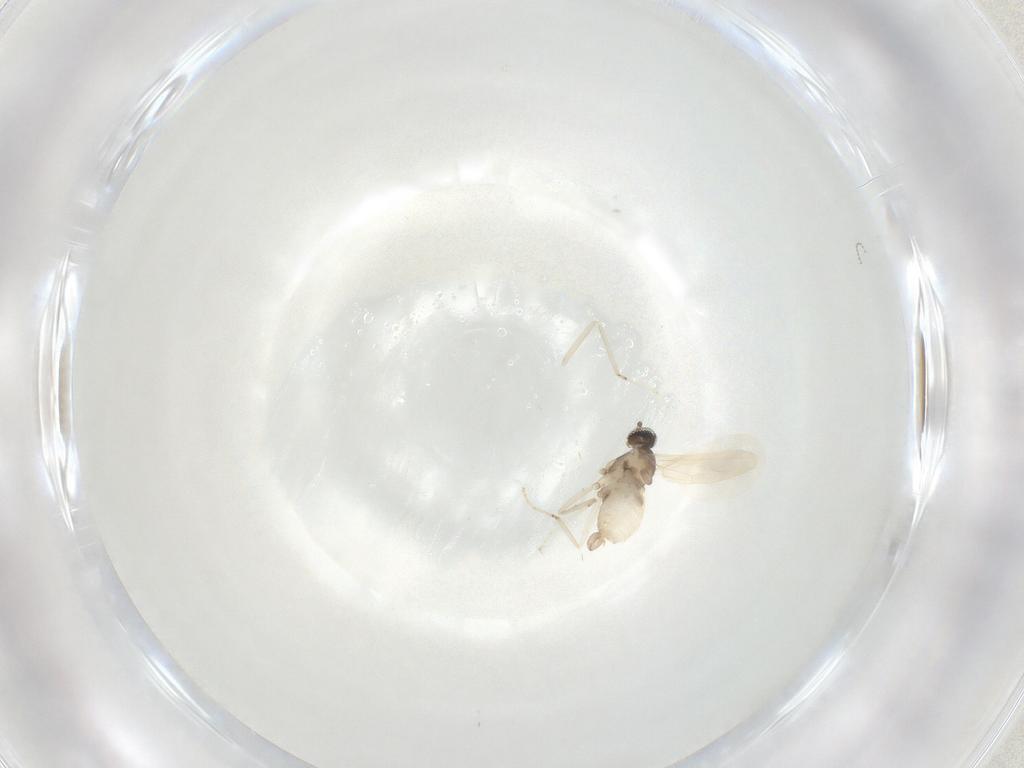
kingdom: Animalia
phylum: Arthropoda
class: Insecta
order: Diptera
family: Cecidomyiidae
